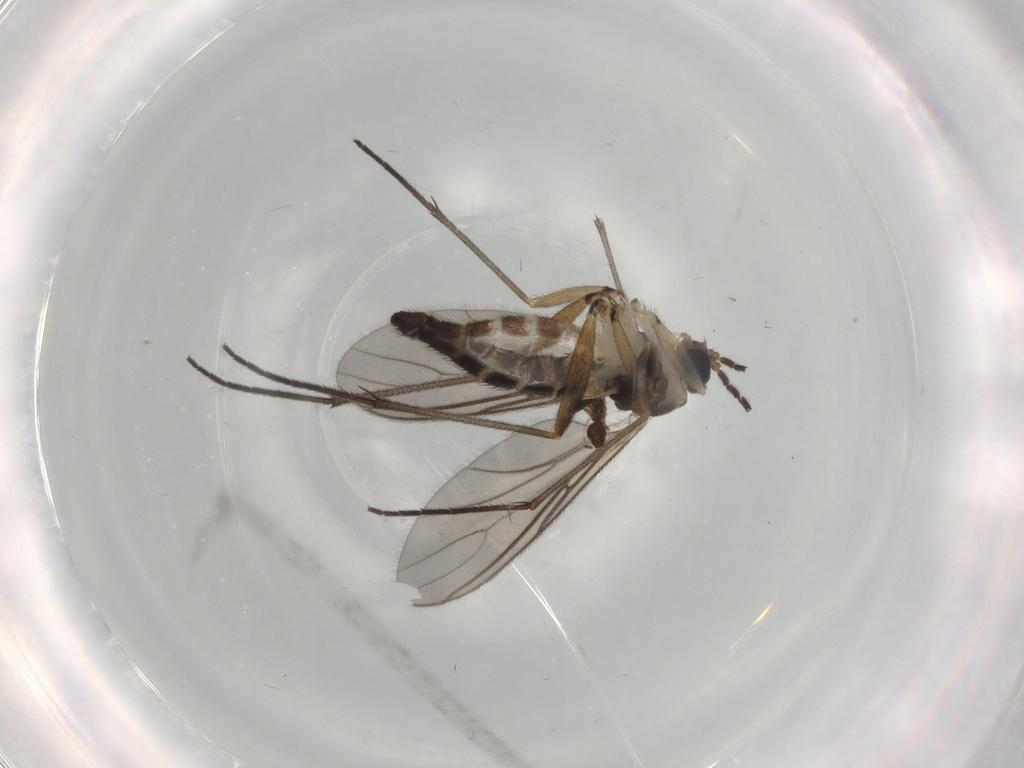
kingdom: Animalia
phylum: Arthropoda
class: Insecta
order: Diptera
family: Sciaridae
